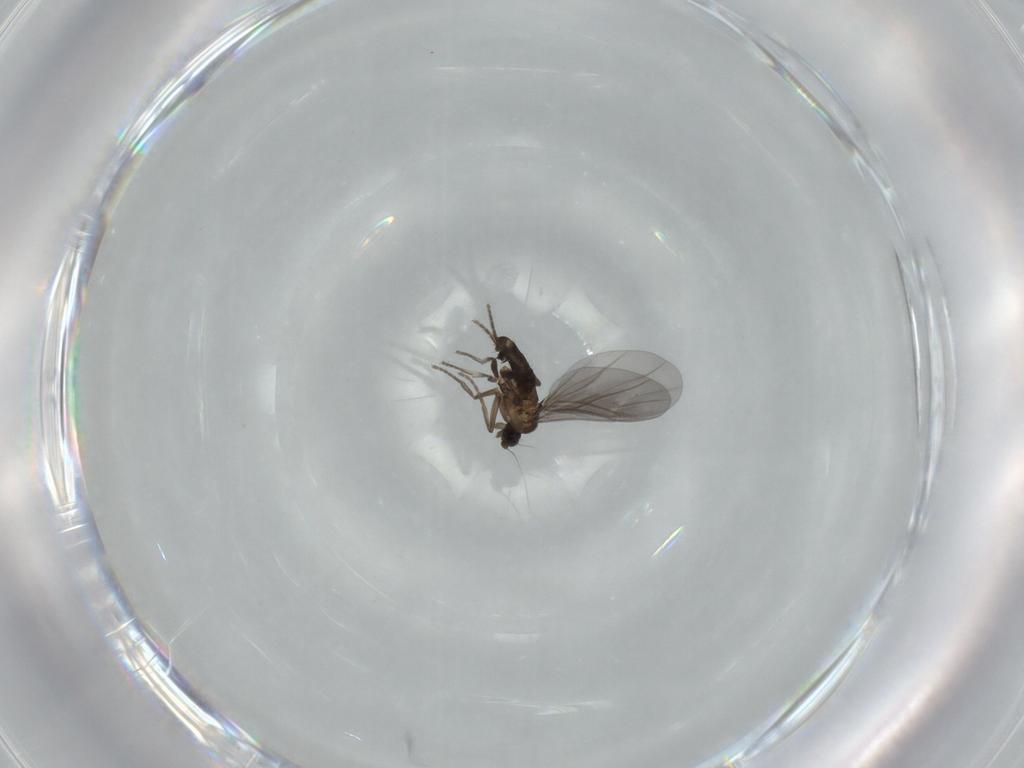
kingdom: Animalia
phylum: Arthropoda
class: Insecta
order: Diptera
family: Phoridae
